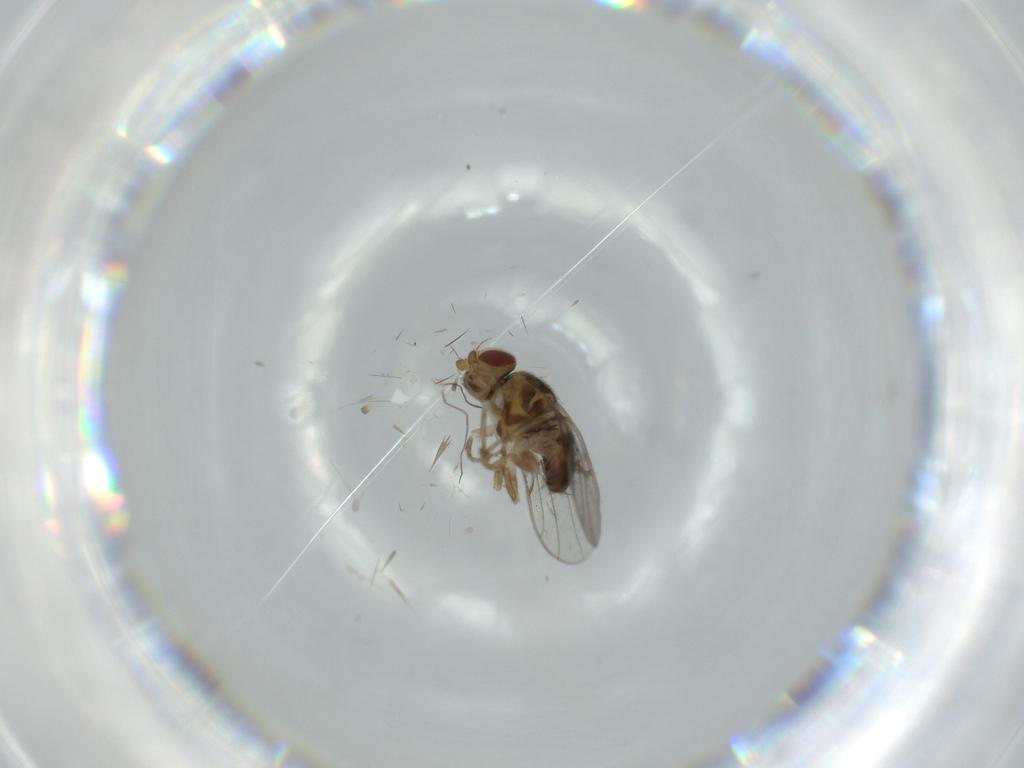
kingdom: Animalia
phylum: Arthropoda
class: Insecta
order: Diptera
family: Chloropidae
